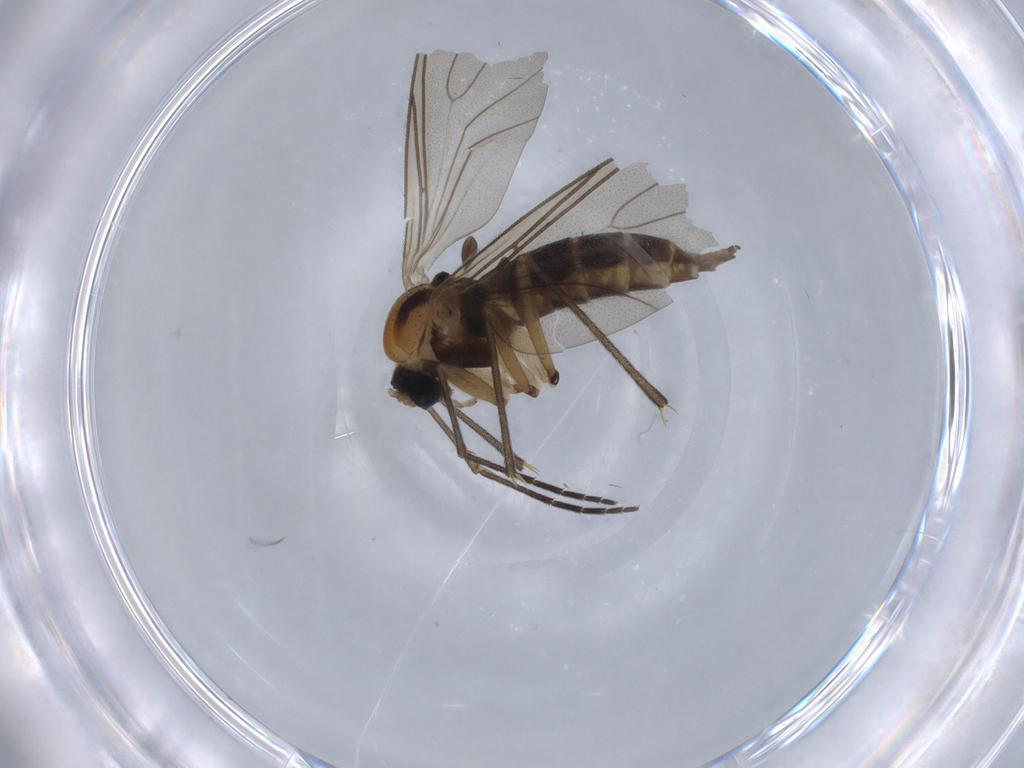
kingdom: Animalia
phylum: Arthropoda
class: Insecta
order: Diptera
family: Sciaridae
